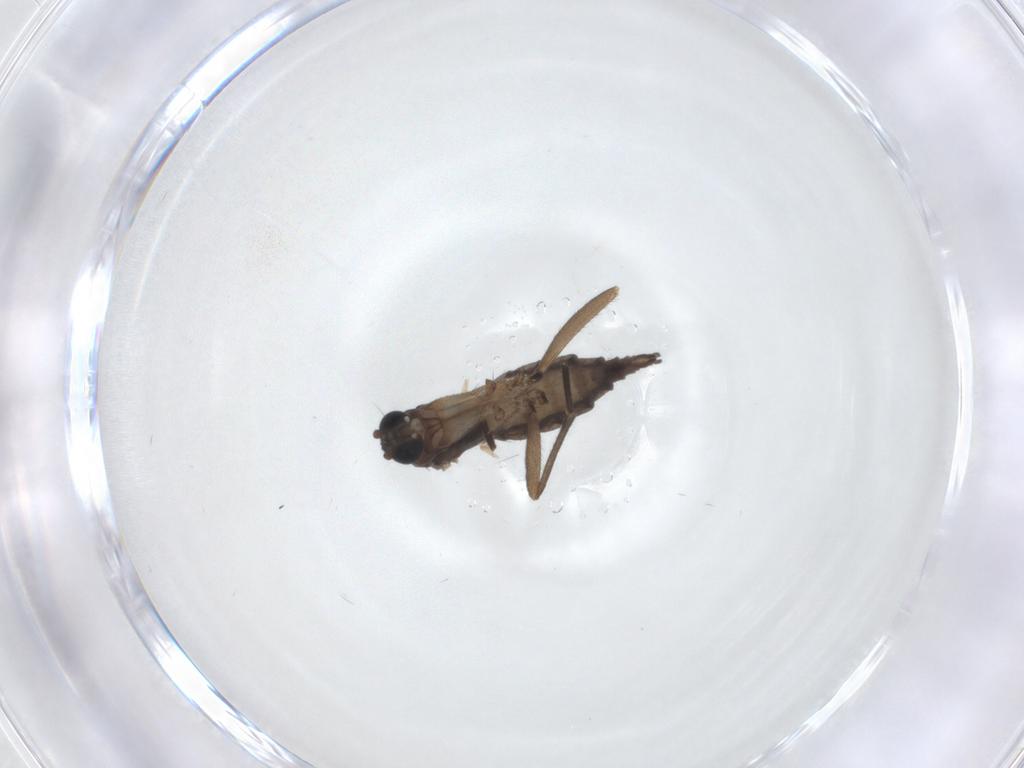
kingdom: Animalia
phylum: Arthropoda
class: Insecta
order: Diptera
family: Sciaridae
